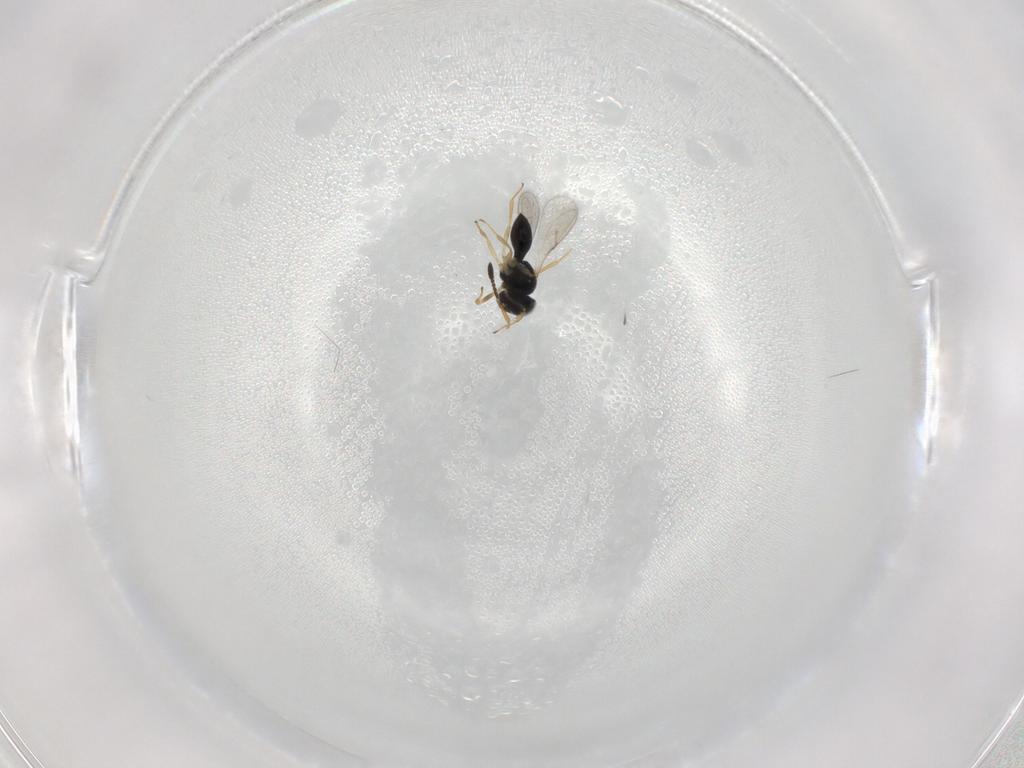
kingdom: Animalia
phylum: Arthropoda
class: Insecta
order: Hymenoptera
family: Scelionidae
